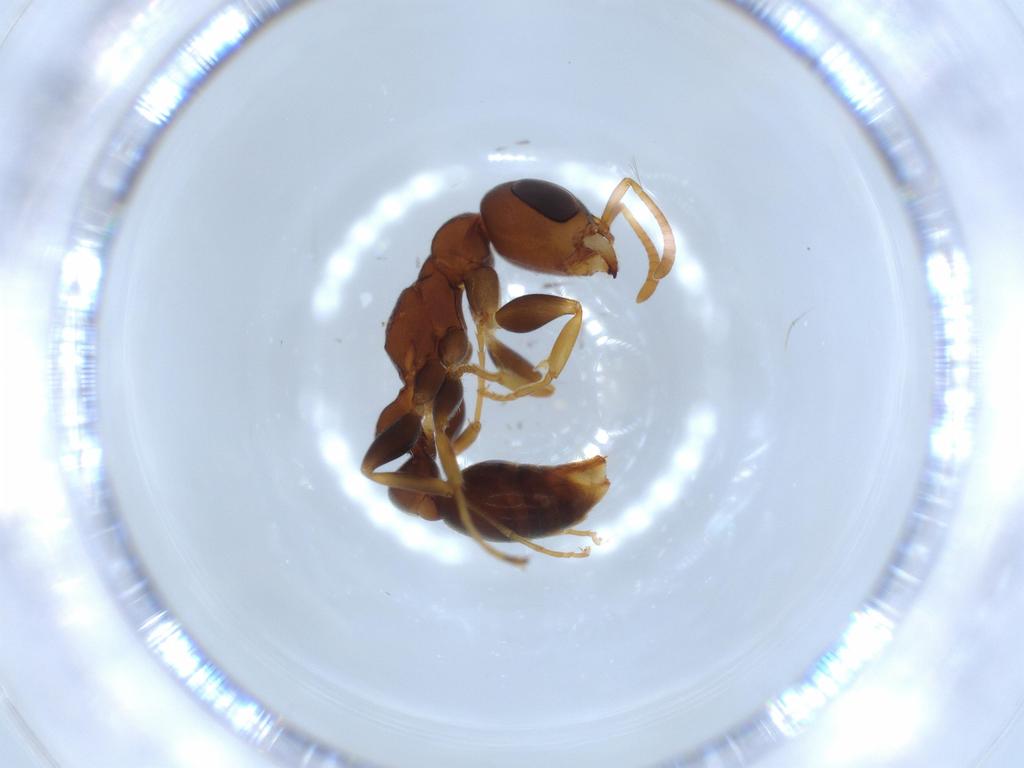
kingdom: Animalia
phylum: Arthropoda
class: Insecta
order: Hymenoptera
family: Formicidae
